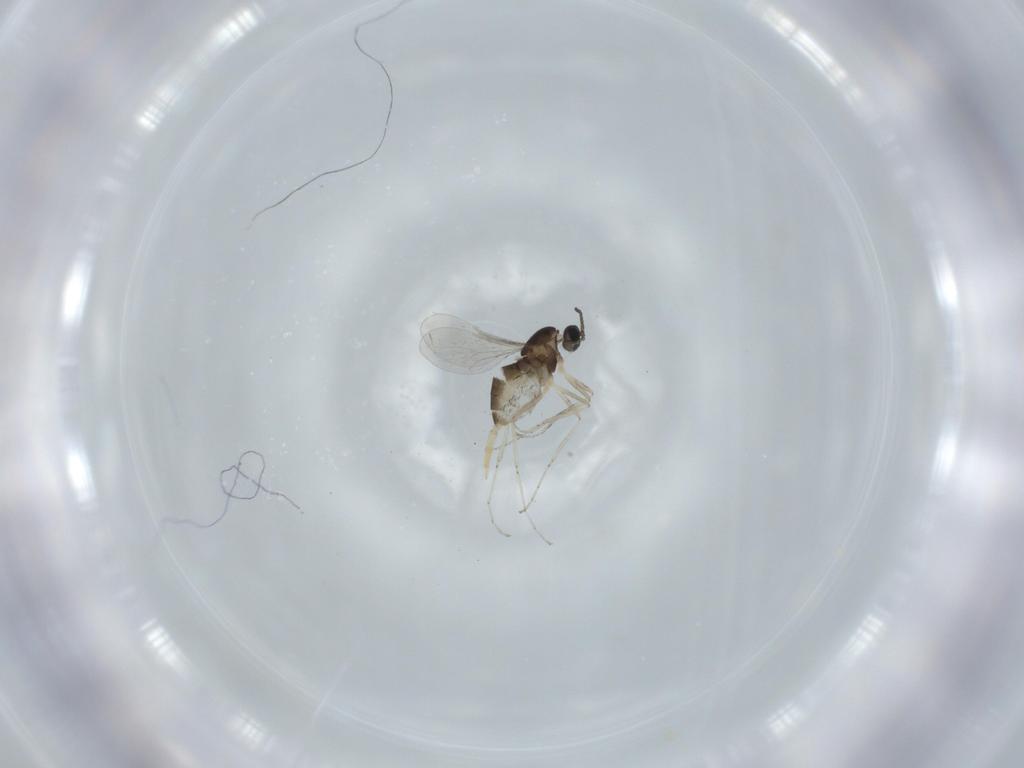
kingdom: Animalia
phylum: Arthropoda
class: Insecta
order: Diptera
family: Cecidomyiidae
